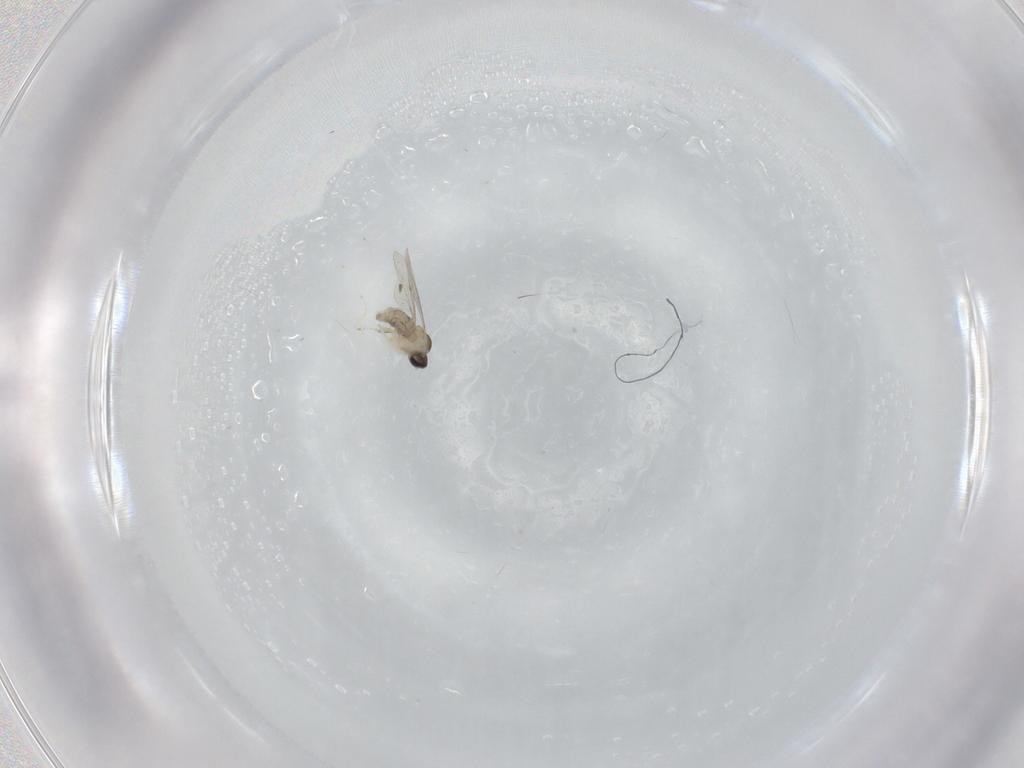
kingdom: Animalia
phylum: Arthropoda
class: Insecta
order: Diptera
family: Cecidomyiidae
